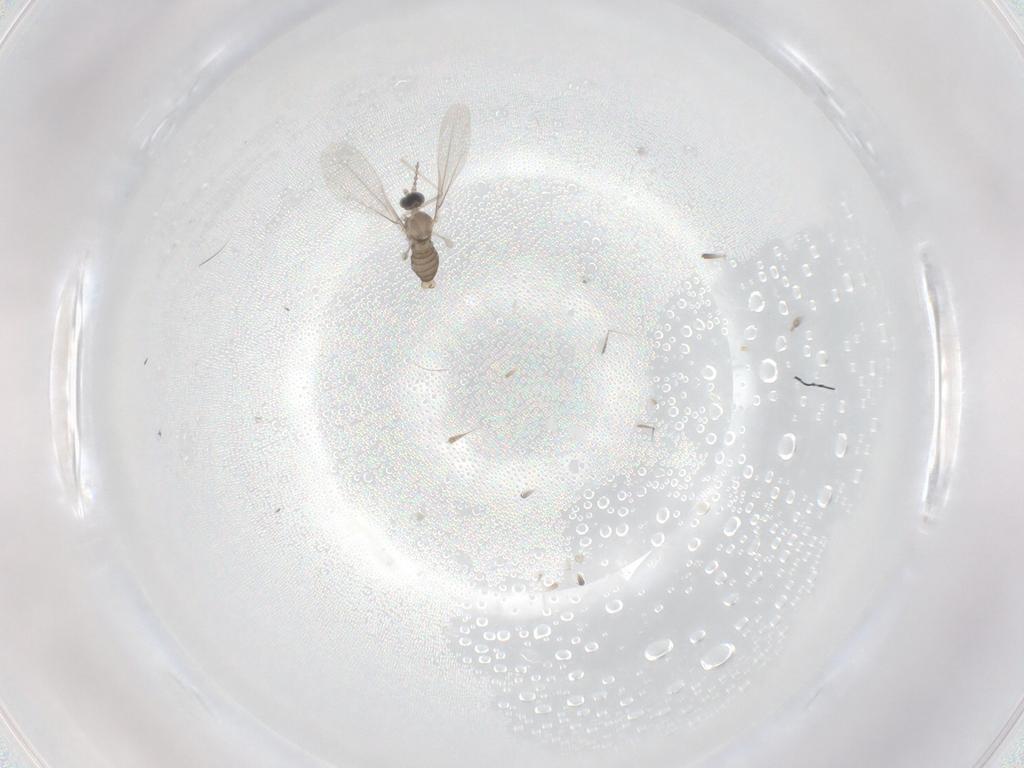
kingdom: Animalia
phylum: Arthropoda
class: Insecta
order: Diptera
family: Cecidomyiidae
